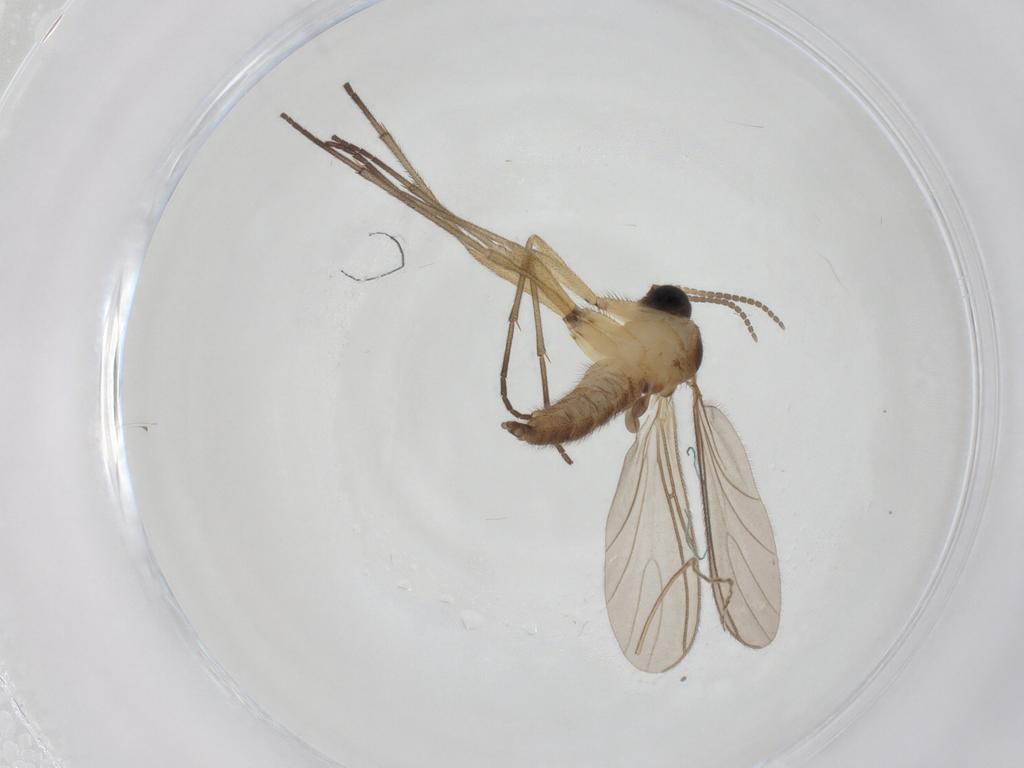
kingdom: Animalia
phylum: Arthropoda
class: Insecta
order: Diptera
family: Sciaridae
